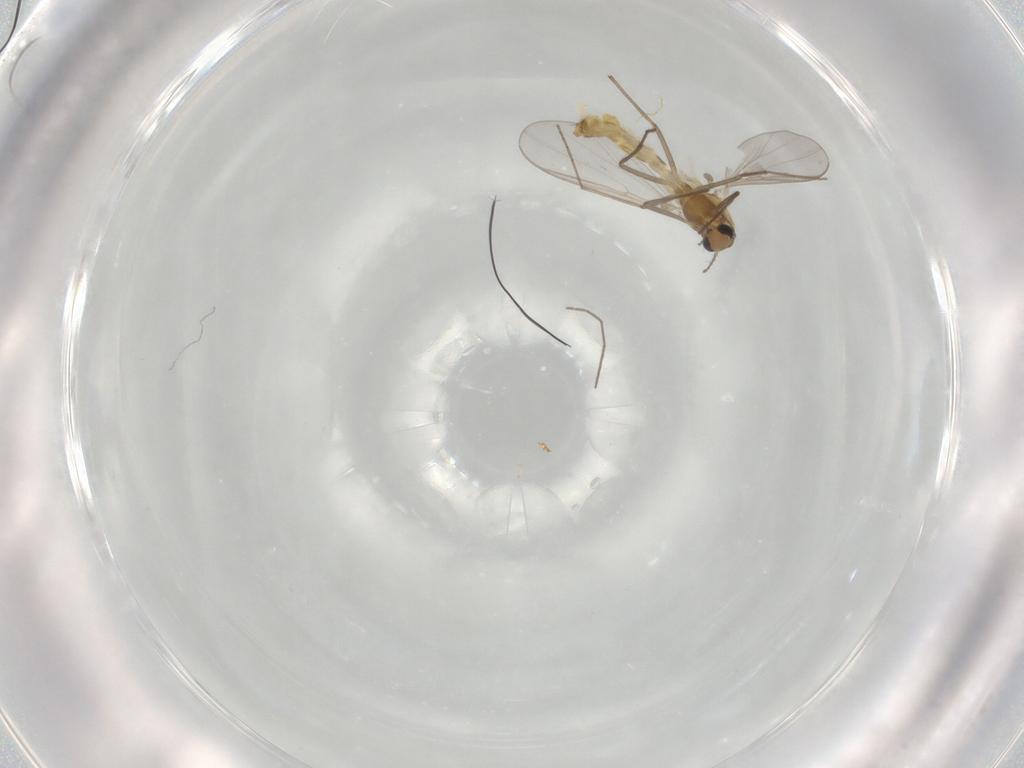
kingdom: Animalia
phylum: Arthropoda
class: Insecta
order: Diptera
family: Chironomidae
